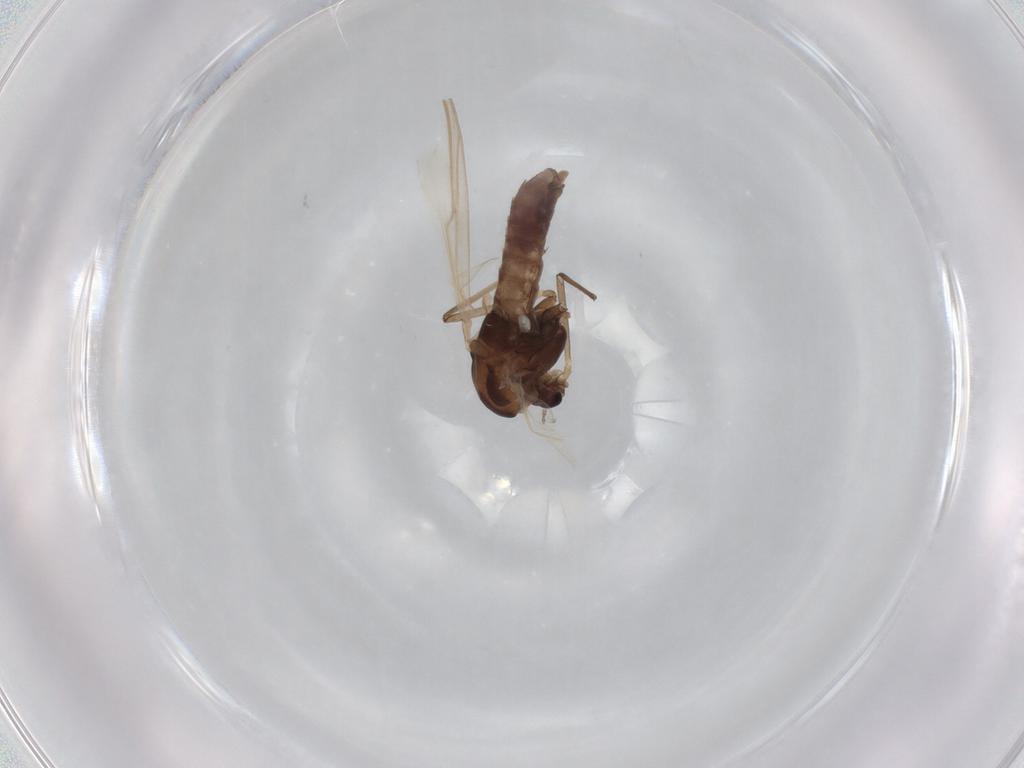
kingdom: Animalia
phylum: Arthropoda
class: Insecta
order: Diptera
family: Chironomidae
